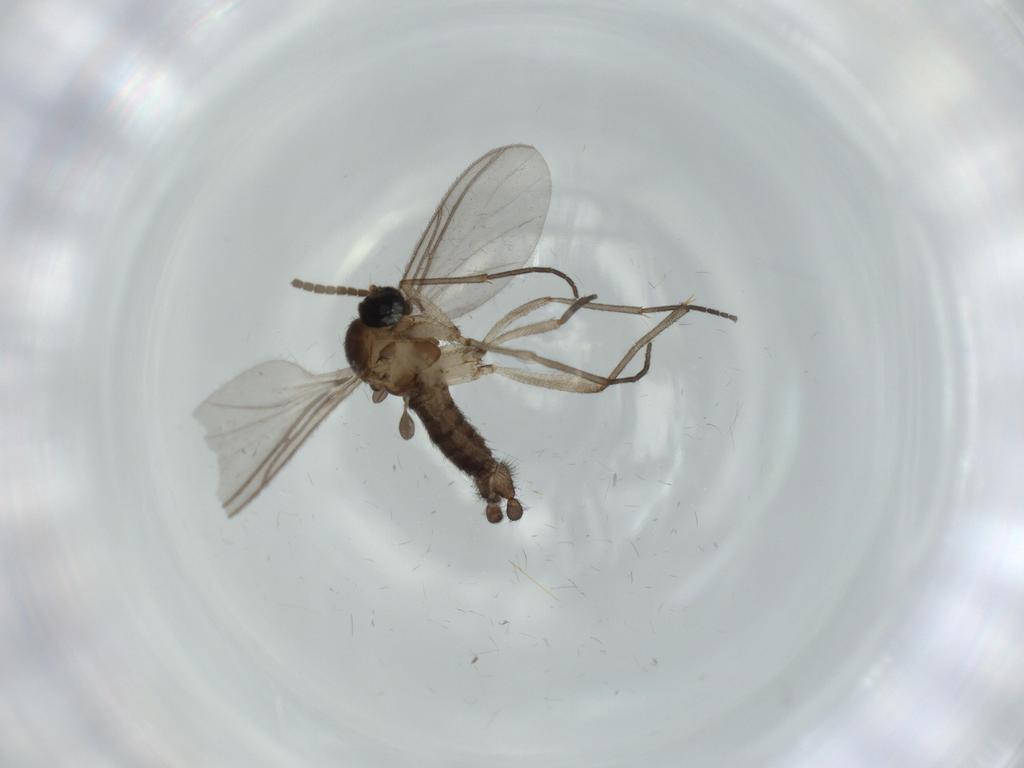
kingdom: Animalia
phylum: Arthropoda
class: Insecta
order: Diptera
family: Sciaridae
